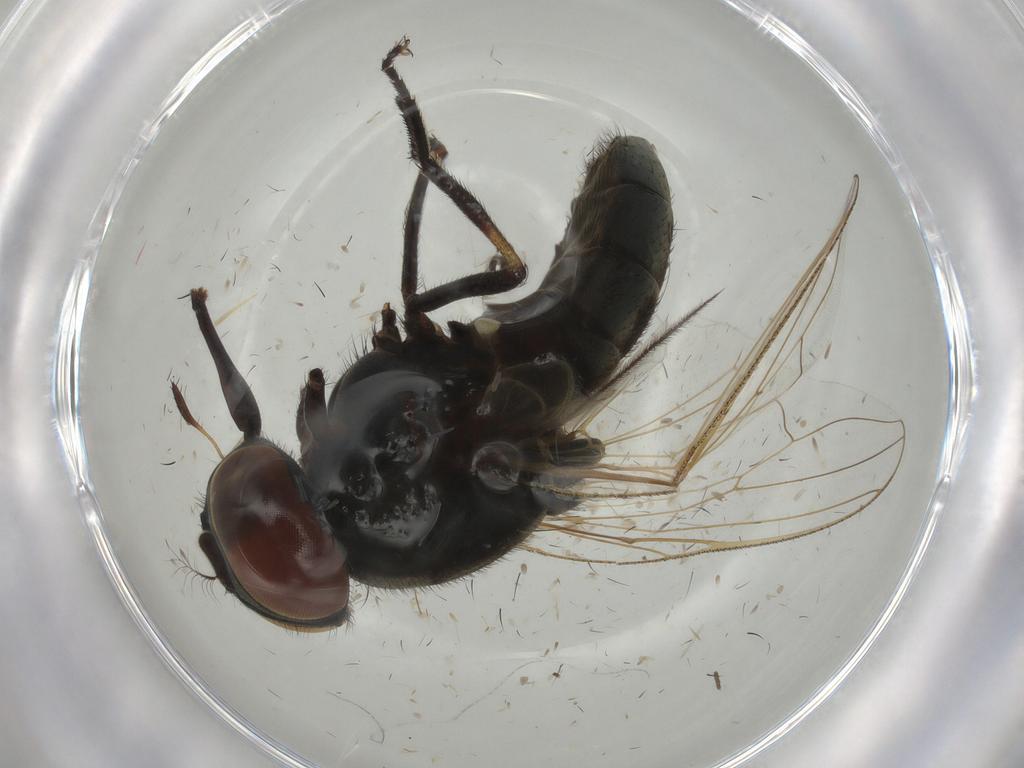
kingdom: Animalia
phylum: Arthropoda
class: Insecta
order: Diptera
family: Muscidae
